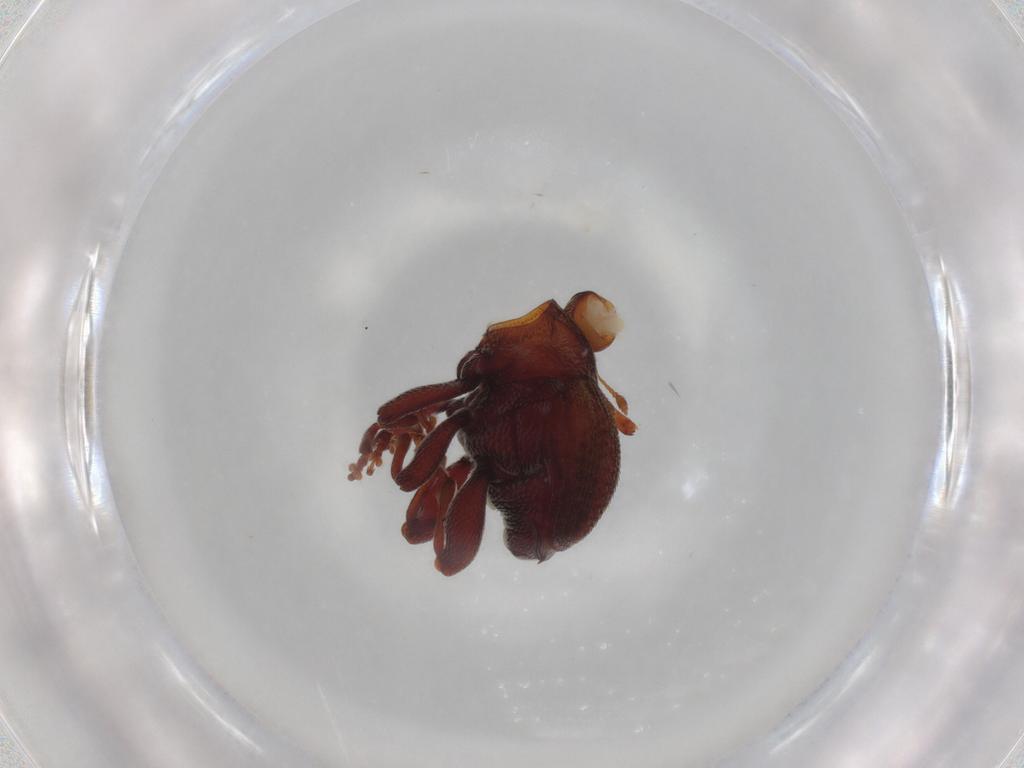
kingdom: Animalia
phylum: Arthropoda
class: Insecta
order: Coleoptera
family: Curculionidae
